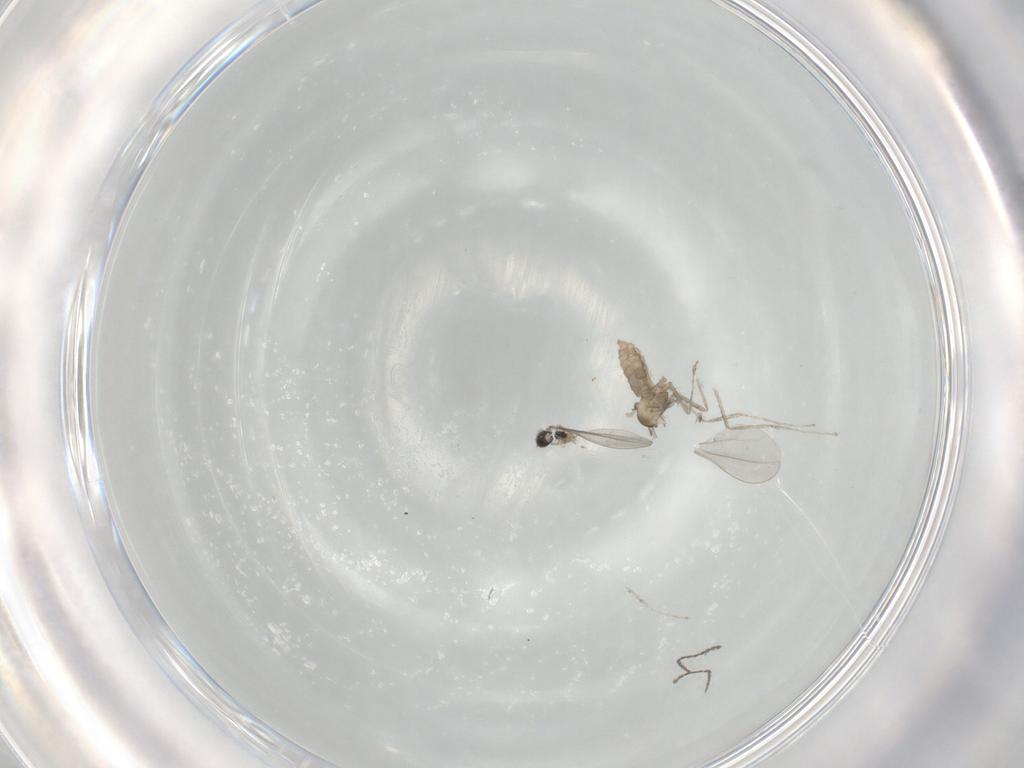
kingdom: Animalia
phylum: Arthropoda
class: Insecta
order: Diptera
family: Cecidomyiidae
